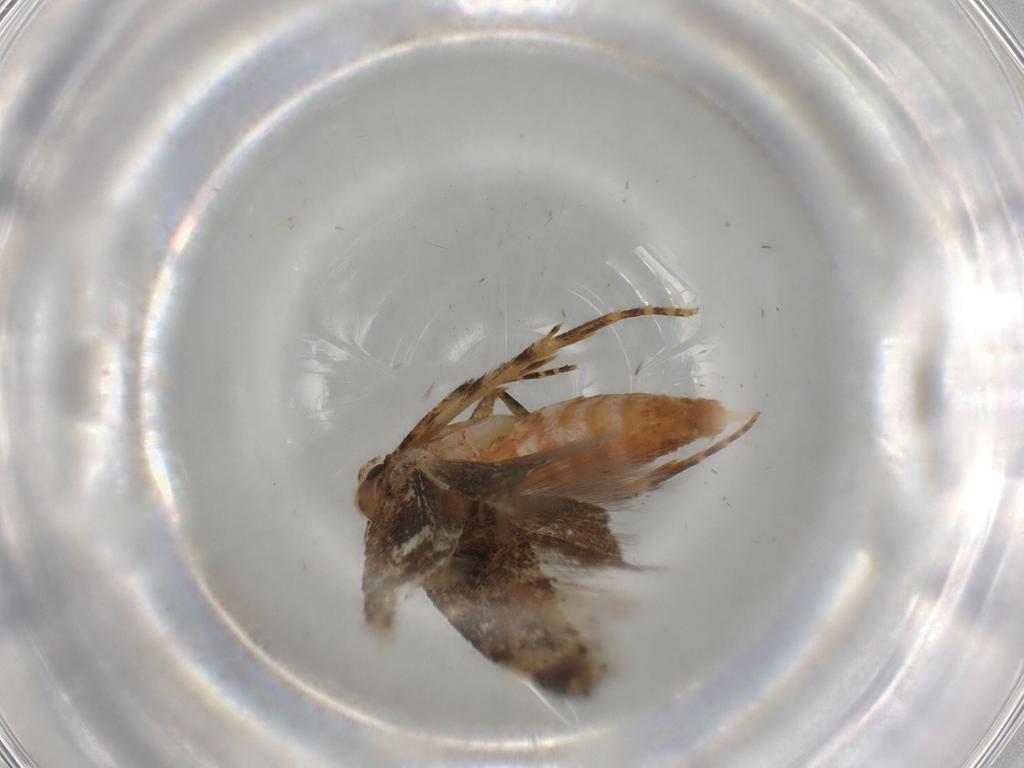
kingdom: Animalia
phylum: Arthropoda
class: Insecta
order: Lepidoptera
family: Gelechiidae
